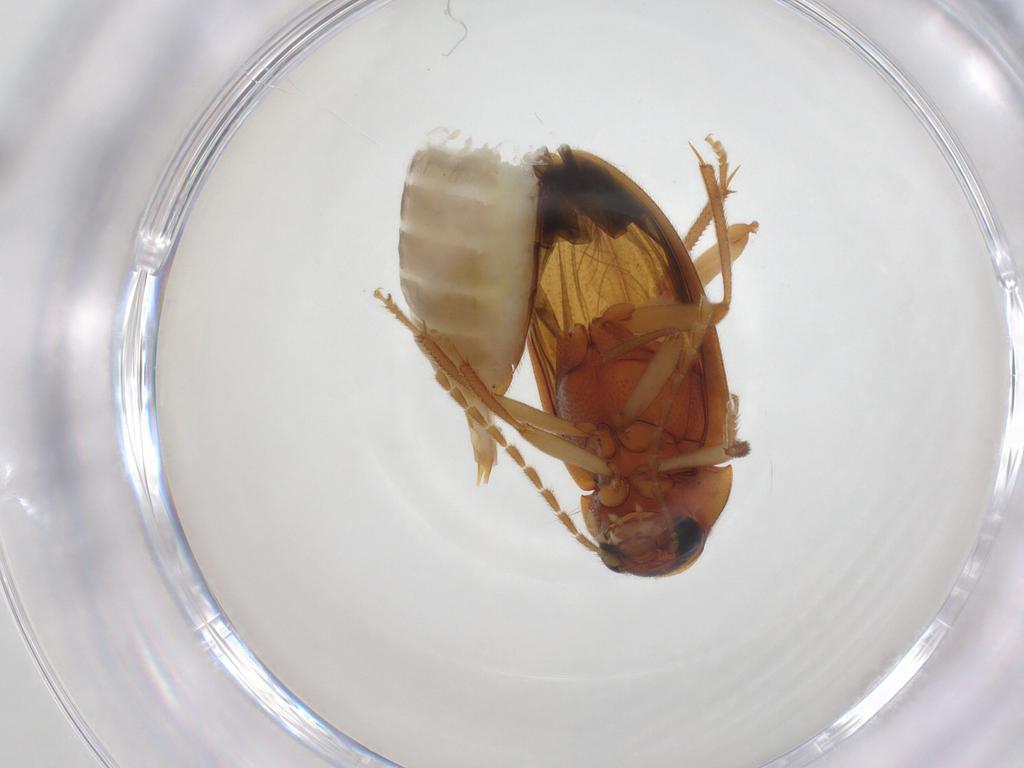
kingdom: Animalia
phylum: Arthropoda
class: Insecta
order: Coleoptera
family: Ptilodactylidae
